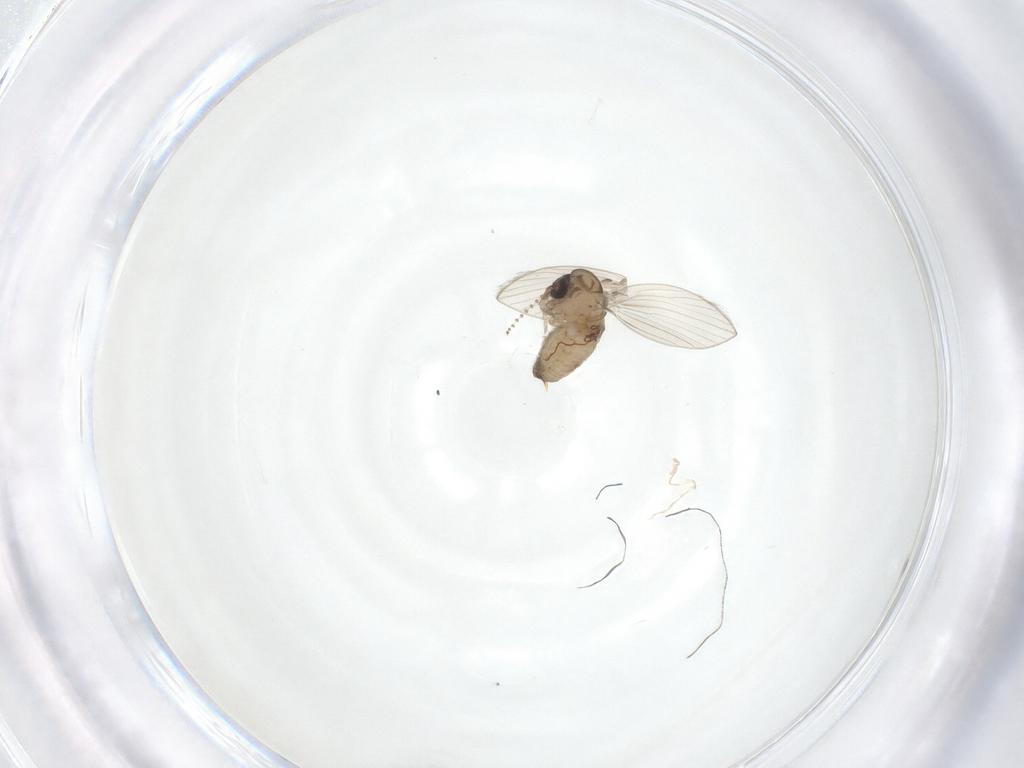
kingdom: Animalia
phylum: Arthropoda
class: Insecta
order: Diptera
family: Psychodidae
